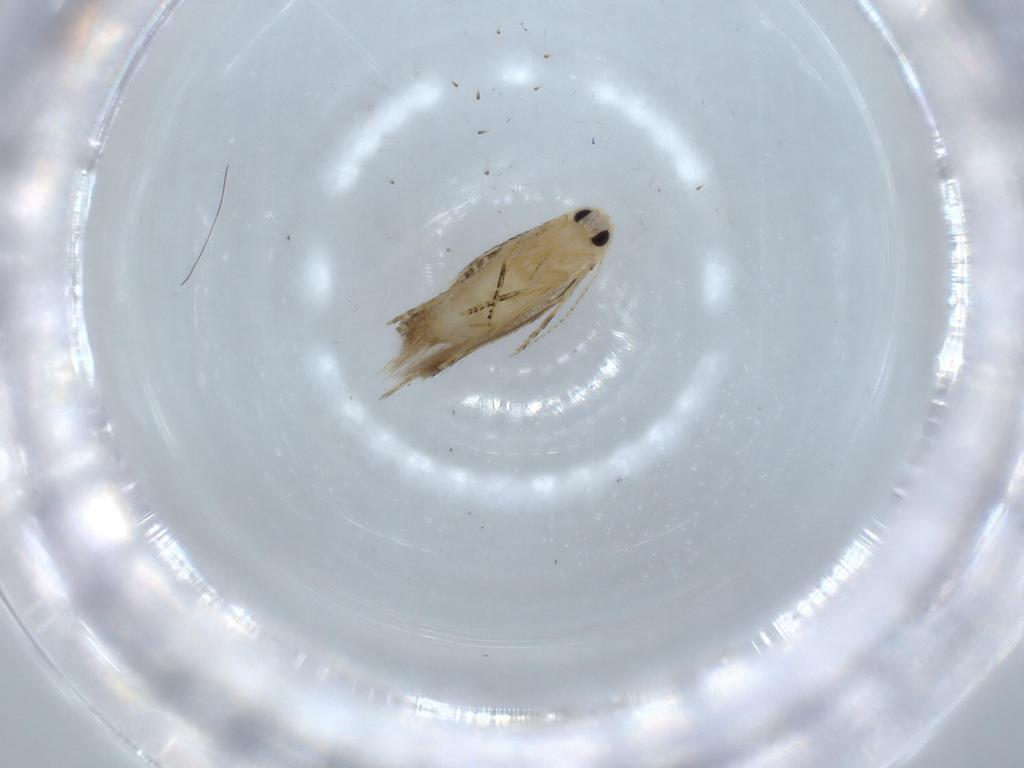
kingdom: Animalia
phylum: Arthropoda
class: Insecta
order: Lepidoptera
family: Bucculatricidae
